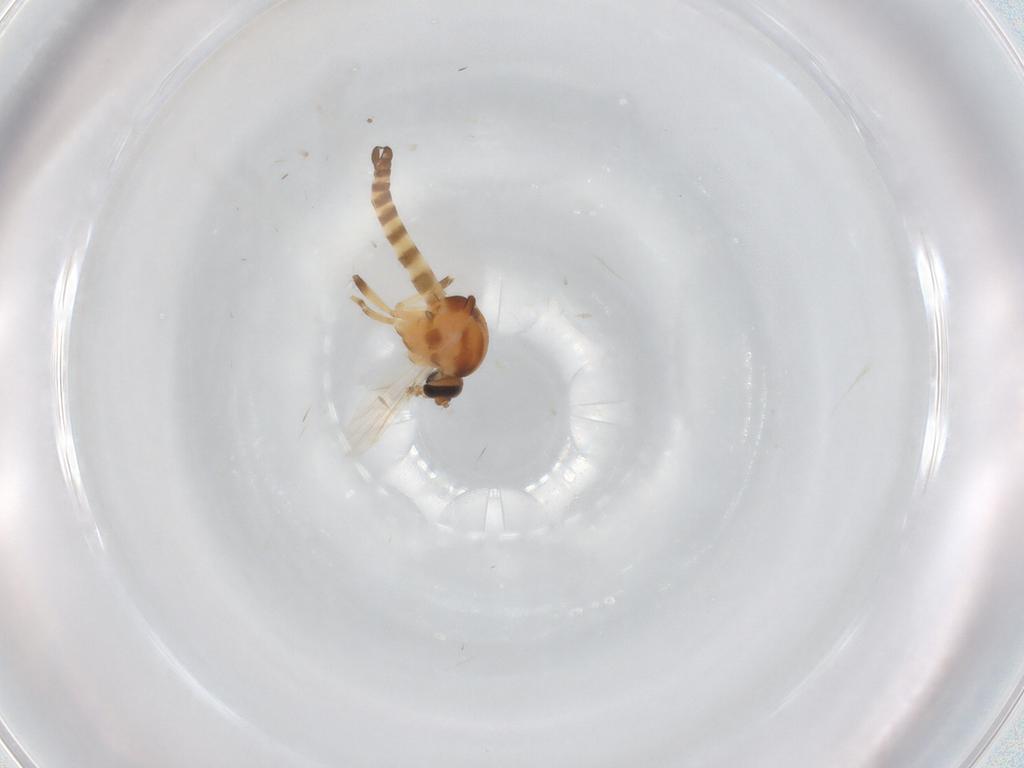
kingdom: Animalia
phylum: Arthropoda
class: Insecta
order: Diptera
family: Ceratopogonidae
